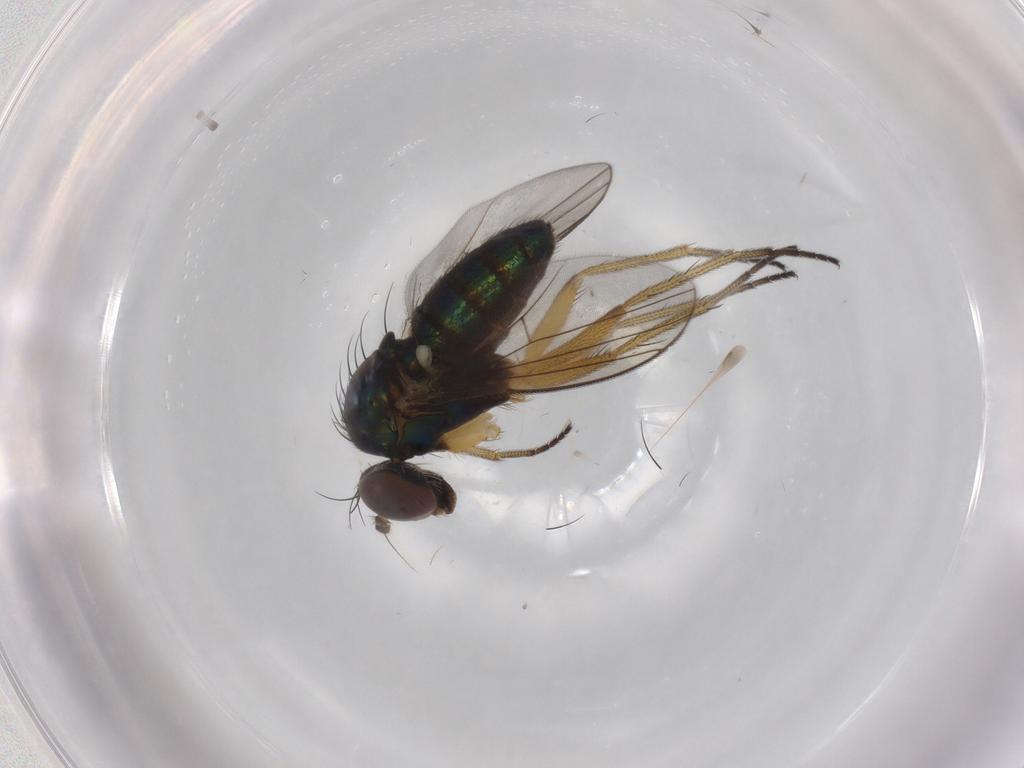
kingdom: Animalia
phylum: Arthropoda
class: Insecta
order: Diptera
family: Dolichopodidae
